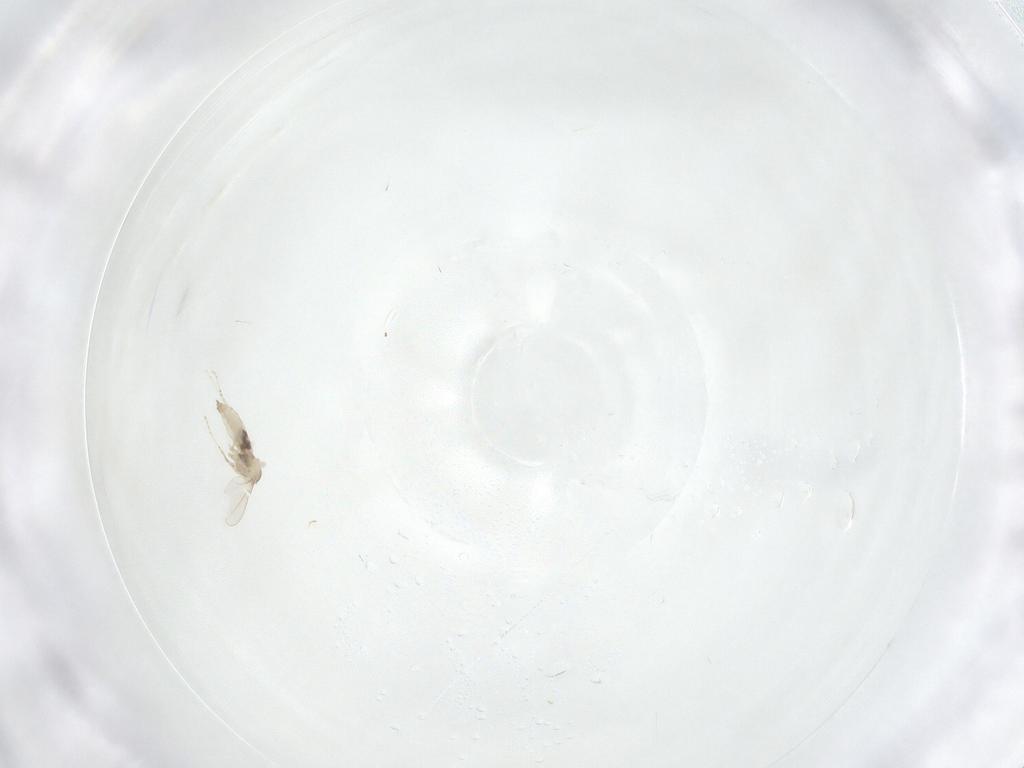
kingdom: Animalia
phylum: Arthropoda
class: Insecta
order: Diptera
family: Cecidomyiidae
